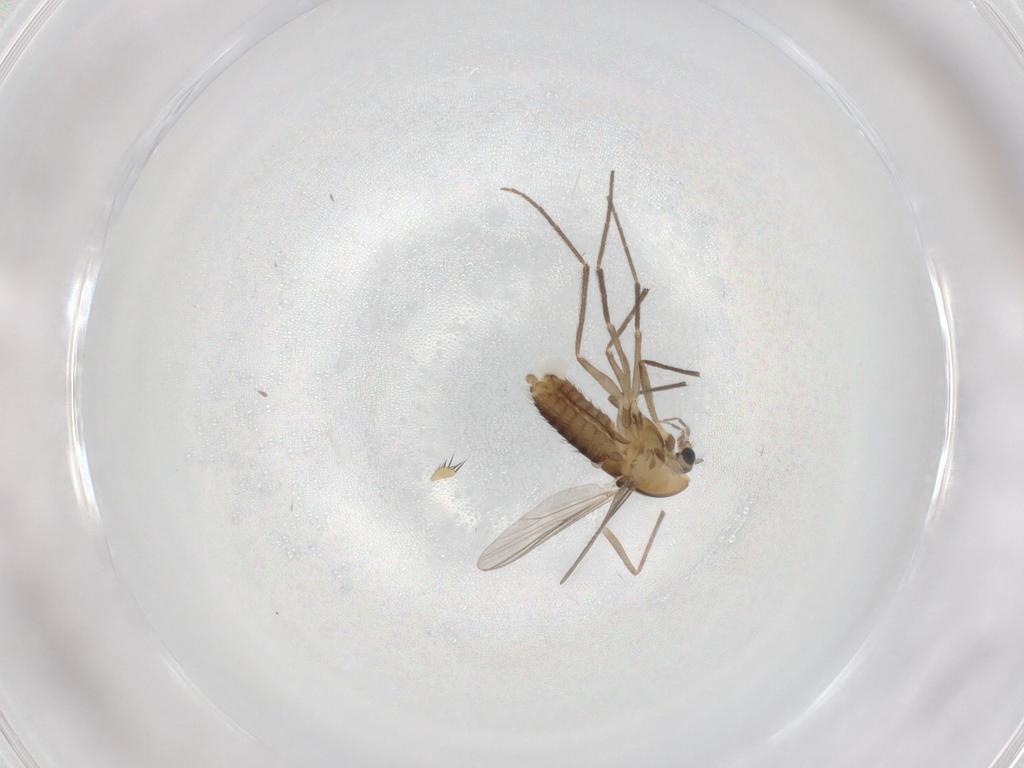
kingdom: Animalia
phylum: Arthropoda
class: Insecta
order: Diptera
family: Chironomidae
